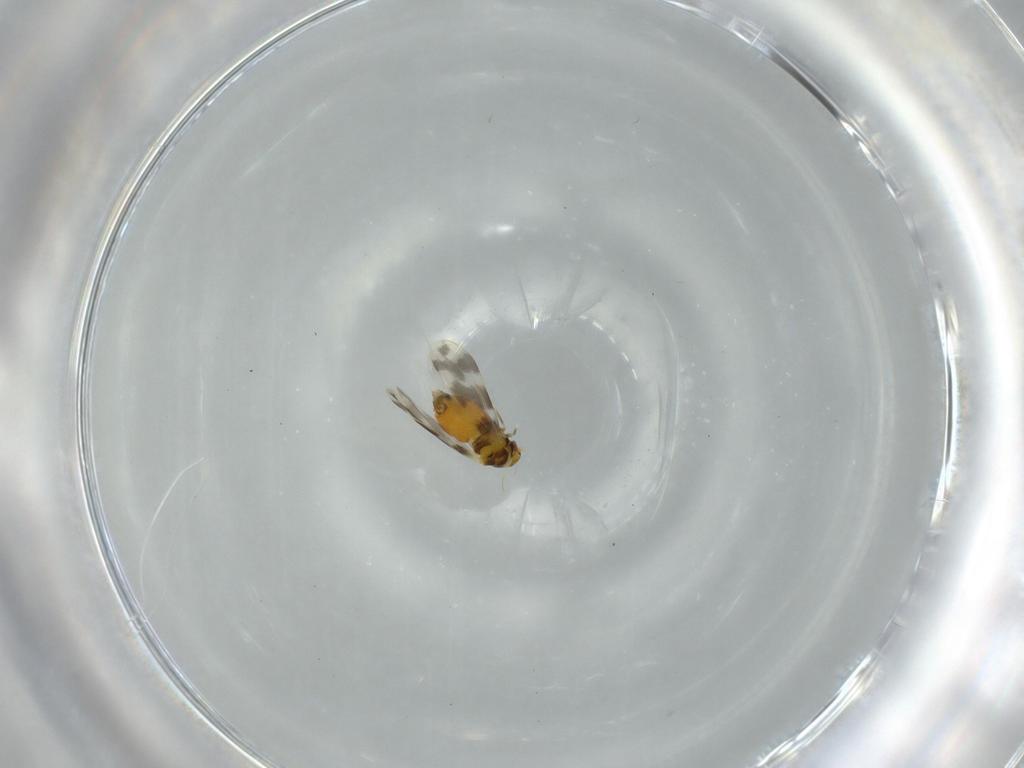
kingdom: Animalia
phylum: Arthropoda
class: Insecta
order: Hemiptera
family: Aleyrodidae
